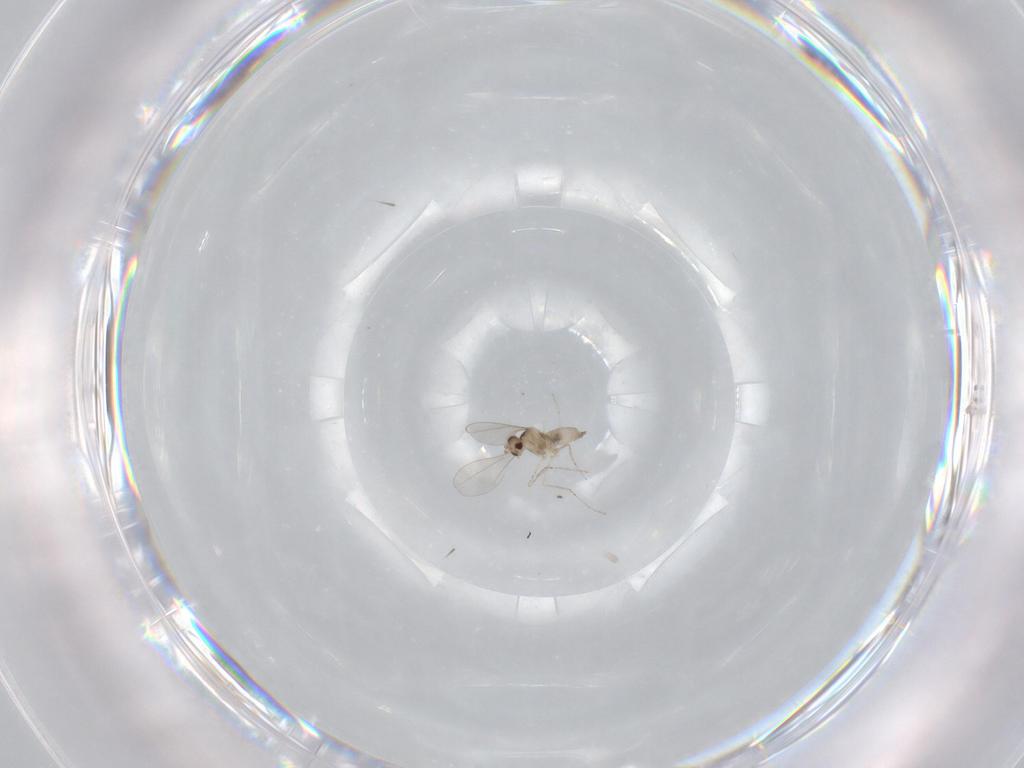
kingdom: Animalia
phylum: Arthropoda
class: Insecta
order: Diptera
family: Cecidomyiidae
